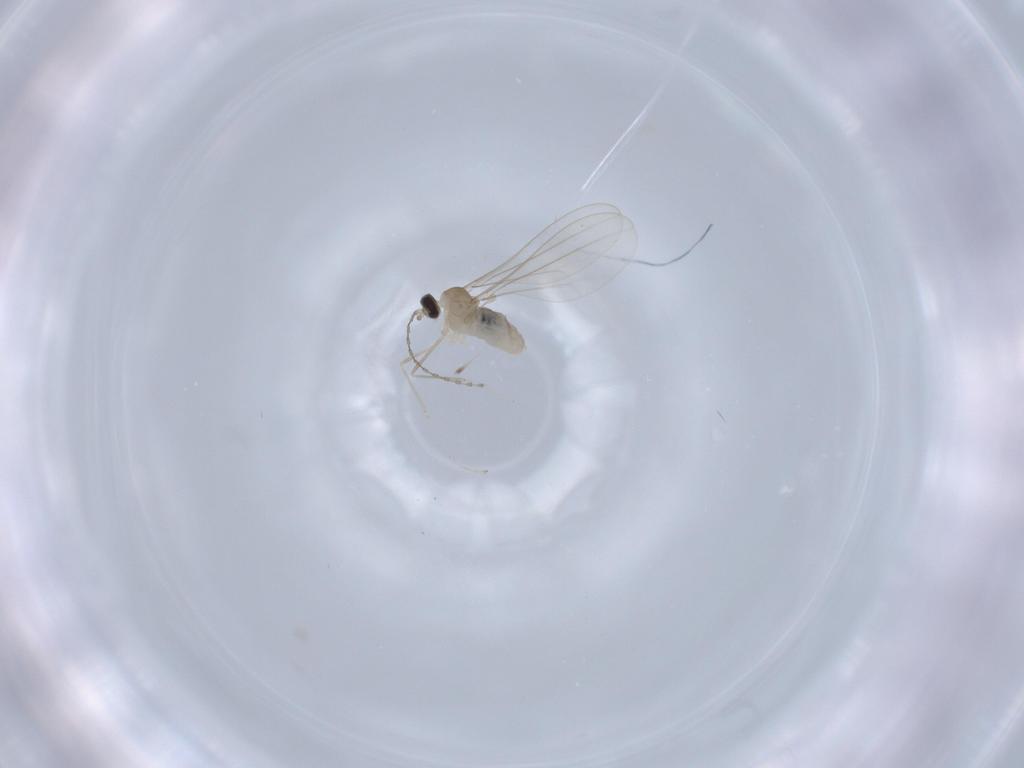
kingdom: Animalia
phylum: Arthropoda
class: Insecta
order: Diptera
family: Cecidomyiidae
